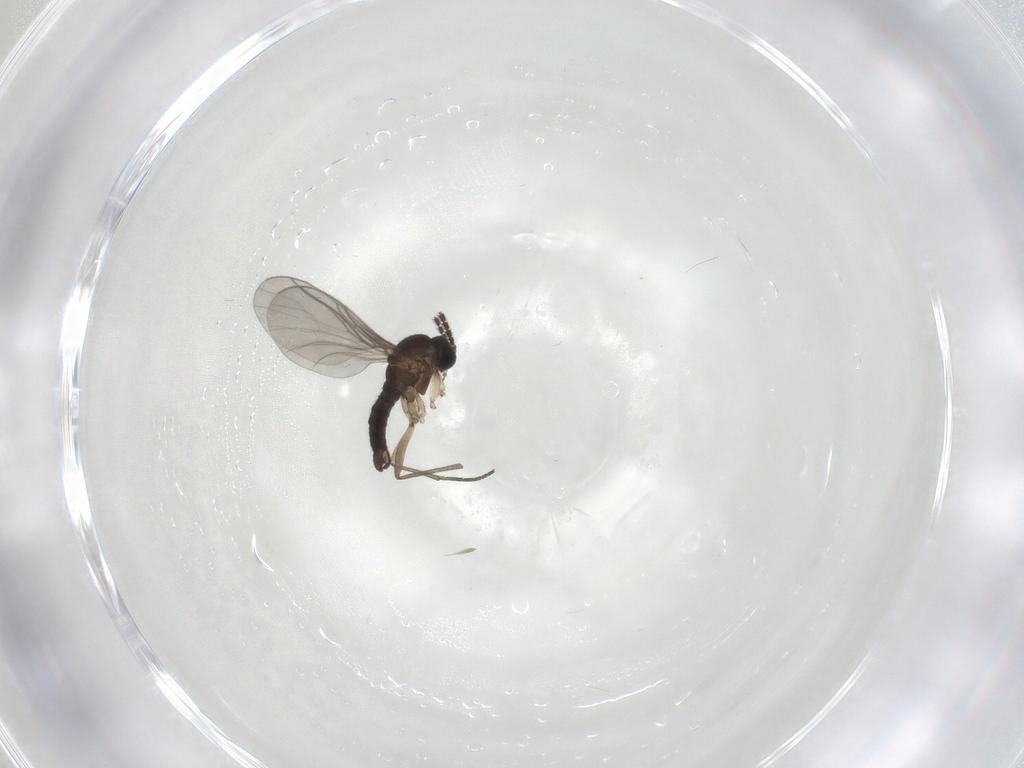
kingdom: Animalia
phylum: Arthropoda
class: Insecta
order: Diptera
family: Sciaridae
